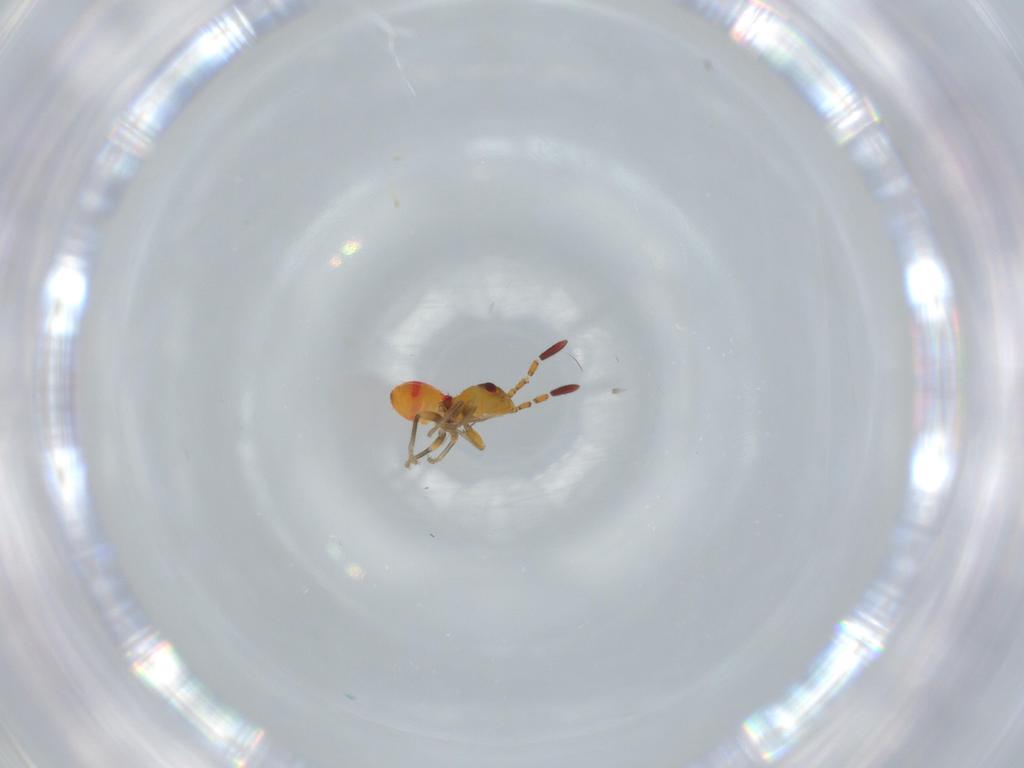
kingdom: Animalia
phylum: Arthropoda
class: Insecta
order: Hemiptera
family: Rhyparochromidae
